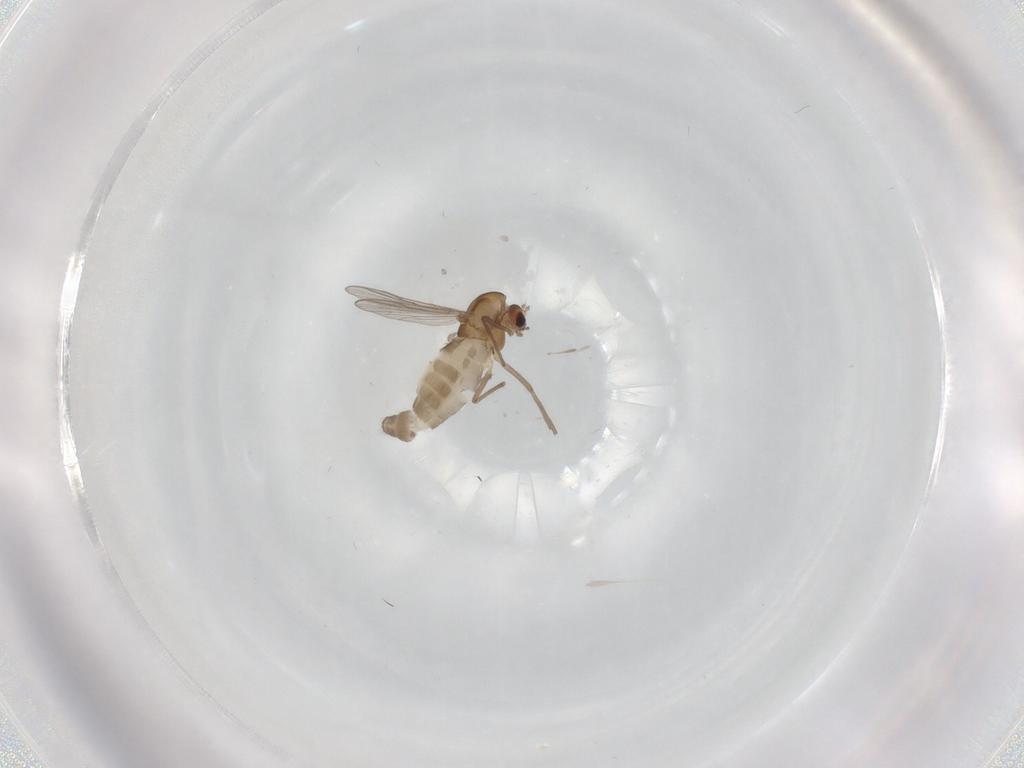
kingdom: Animalia
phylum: Arthropoda
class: Insecta
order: Diptera
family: Chironomidae
